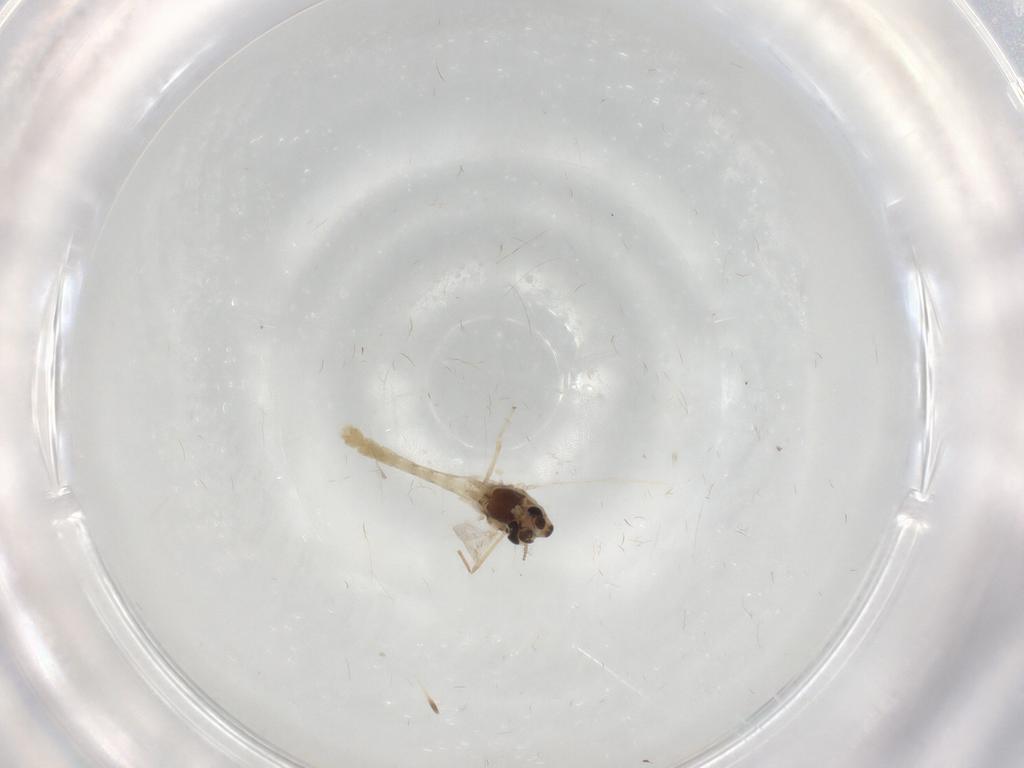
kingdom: Animalia
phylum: Arthropoda
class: Insecta
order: Diptera
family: Chironomidae
